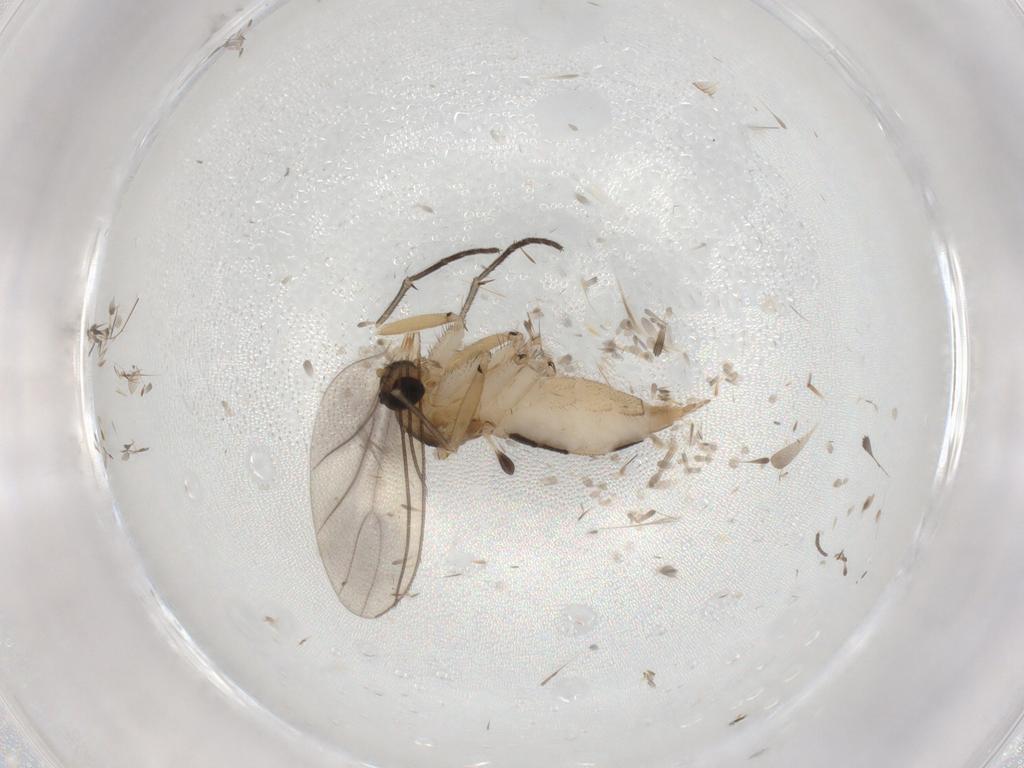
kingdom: Animalia
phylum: Arthropoda
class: Insecta
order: Diptera
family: Cecidomyiidae
